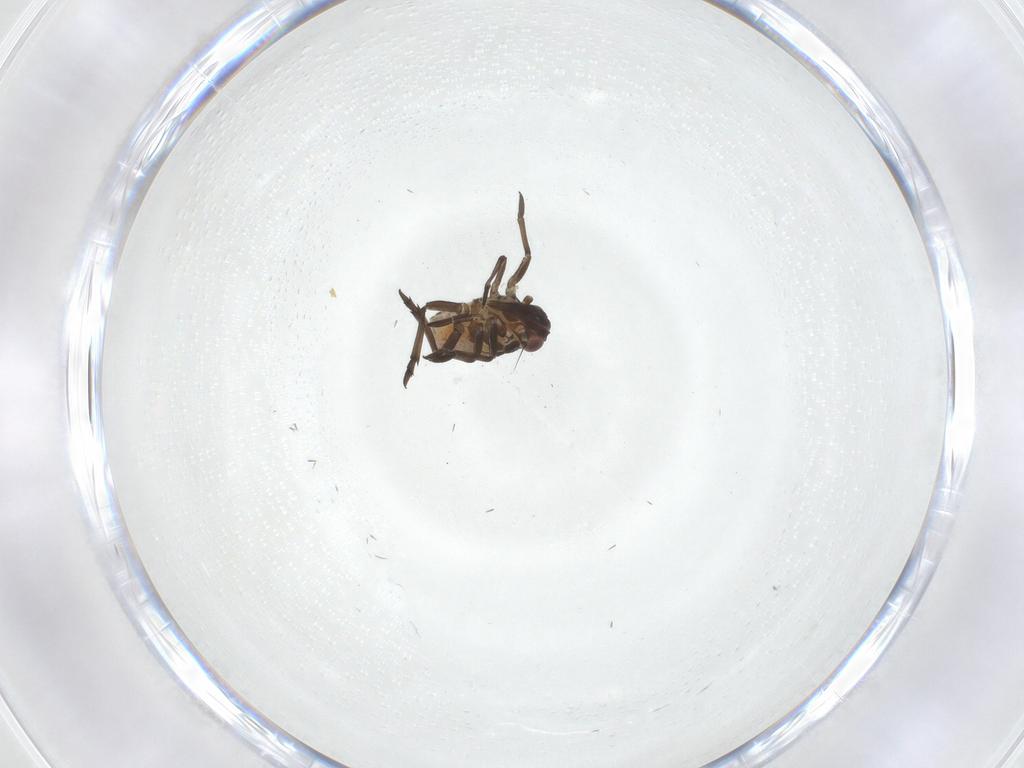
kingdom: Animalia
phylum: Arthropoda
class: Insecta
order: Hemiptera
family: Dictyopharidae
